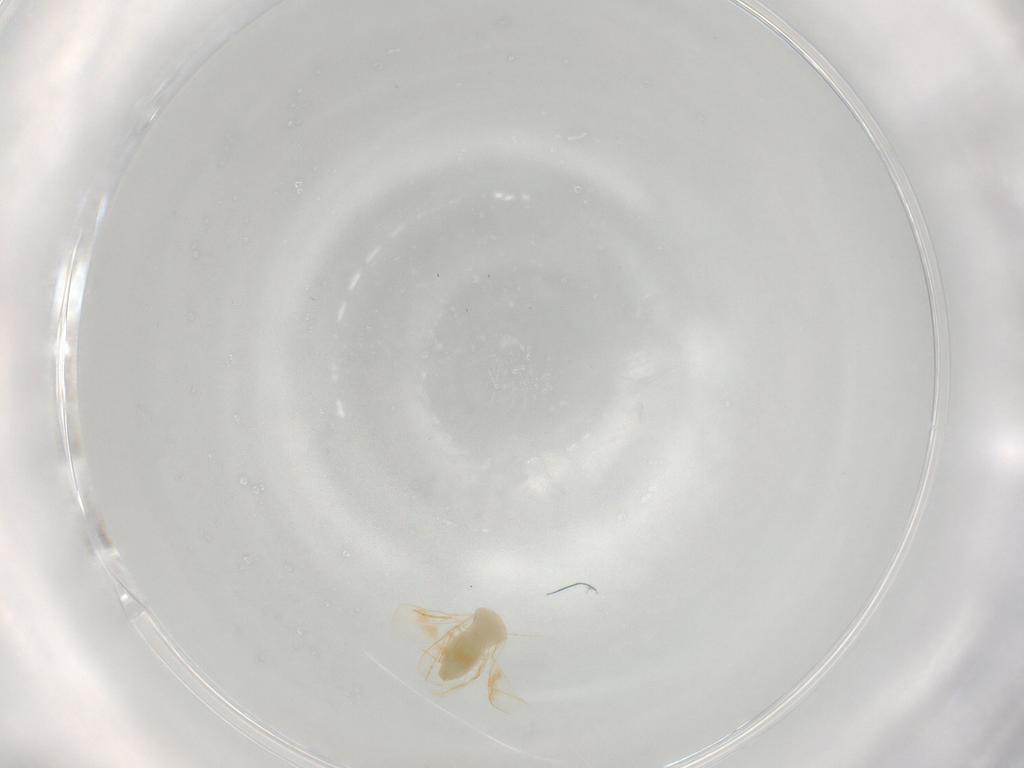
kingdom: Animalia
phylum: Arthropoda
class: Insecta
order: Hemiptera
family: Aleyrodidae
